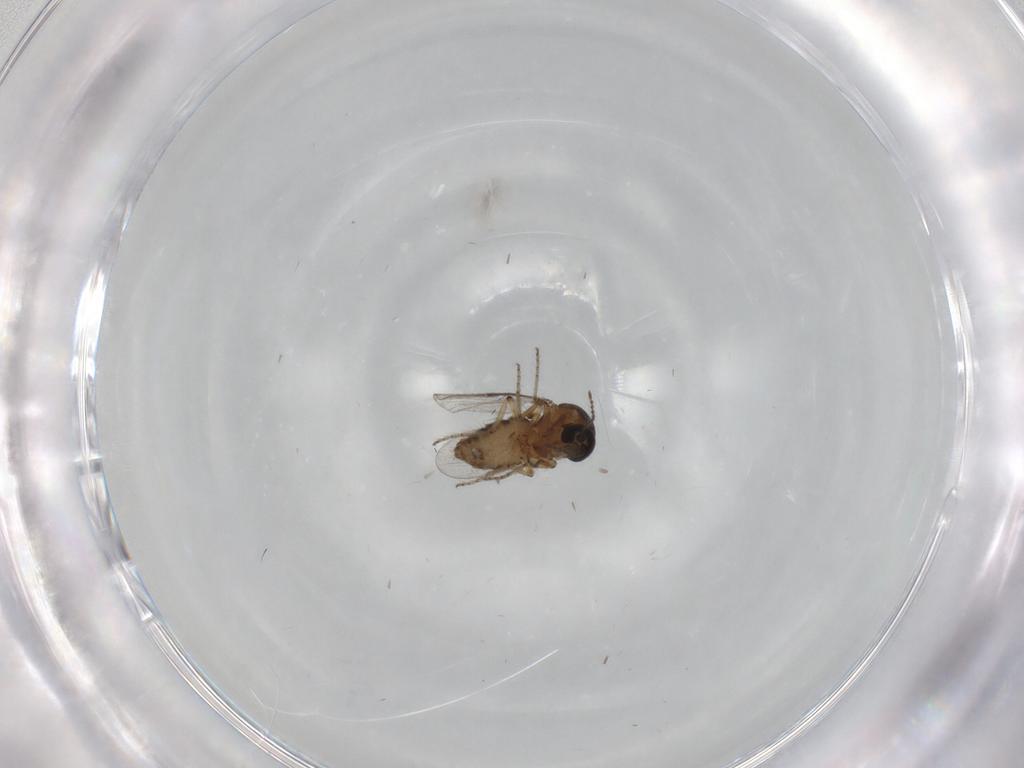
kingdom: Animalia
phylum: Arthropoda
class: Insecta
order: Diptera
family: Ceratopogonidae
